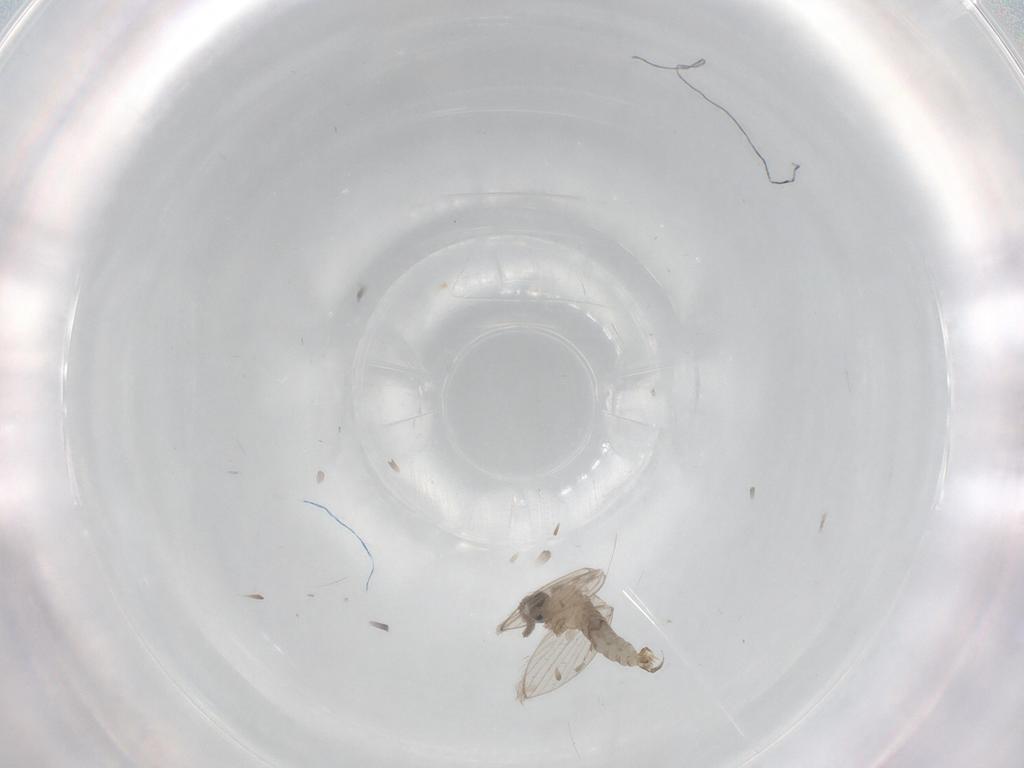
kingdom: Animalia
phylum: Arthropoda
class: Insecta
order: Diptera
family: Psychodidae
